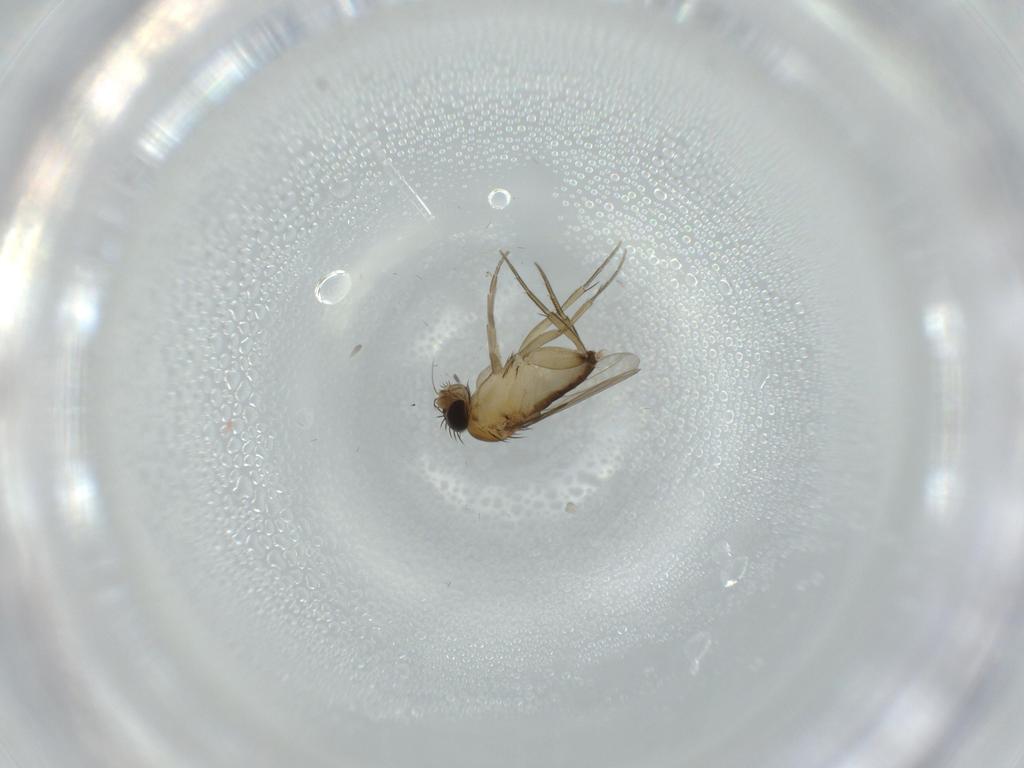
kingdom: Animalia
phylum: Arthropoda
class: Insecta
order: Diptera
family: Phoridae
